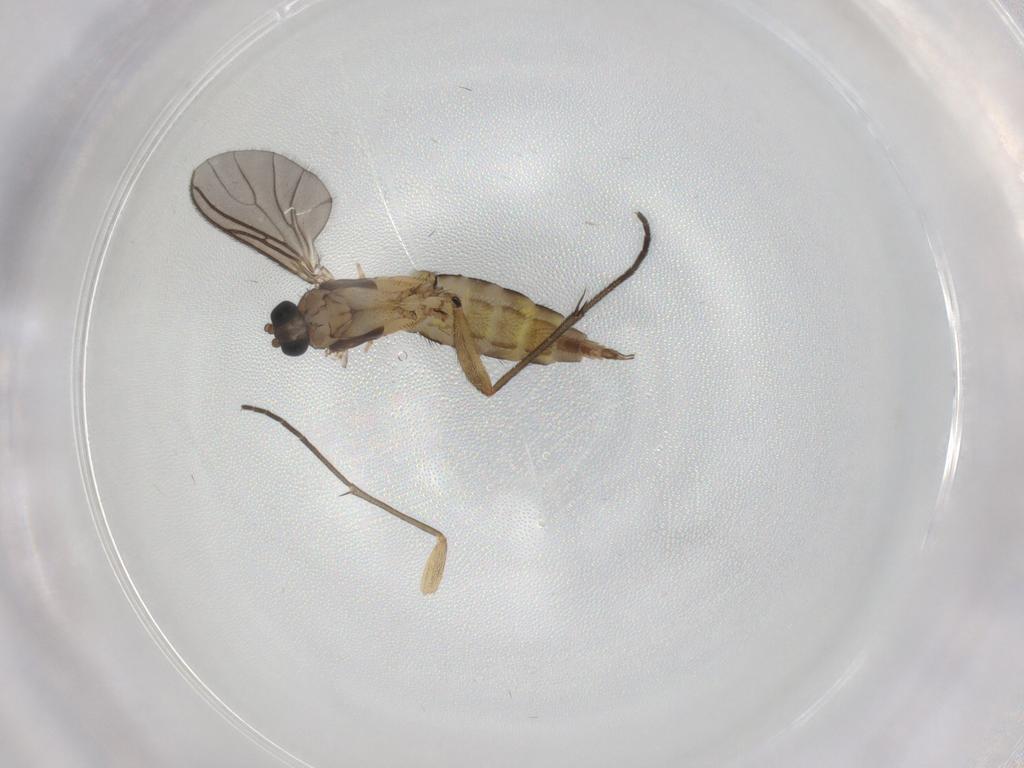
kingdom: Animalia
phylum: Arthropoda
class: Insecta
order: Diptera
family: Sciaridae
